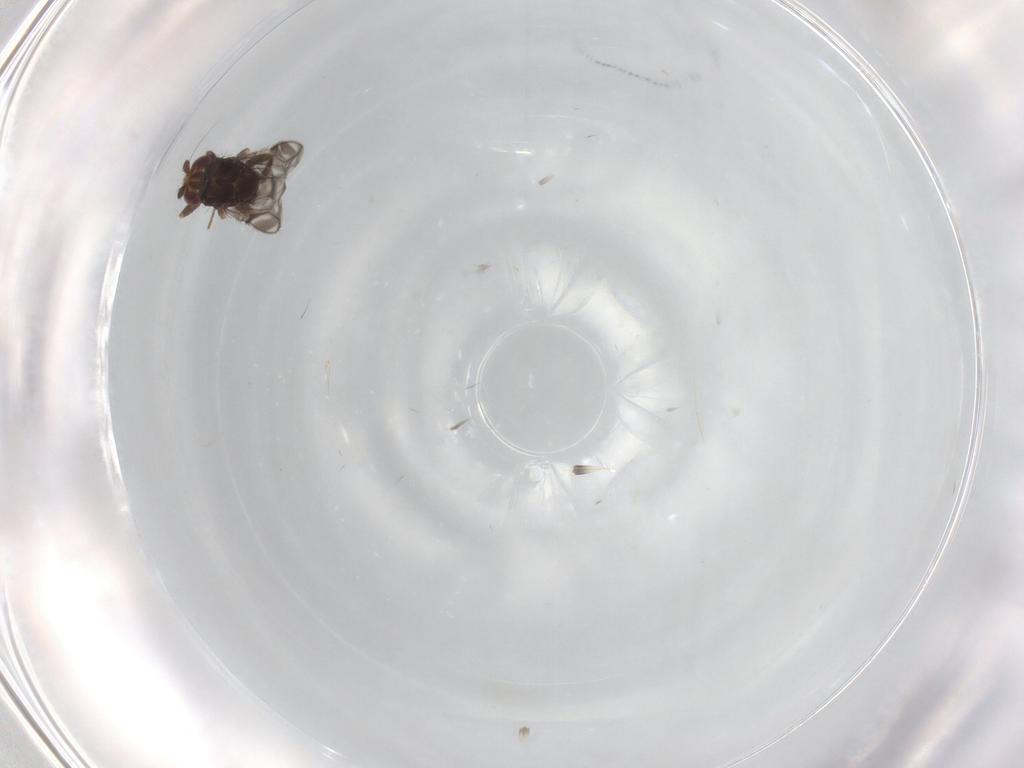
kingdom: Animalia
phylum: Arthropoda
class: Insecta
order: Diptera
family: Sphaeroceridae
